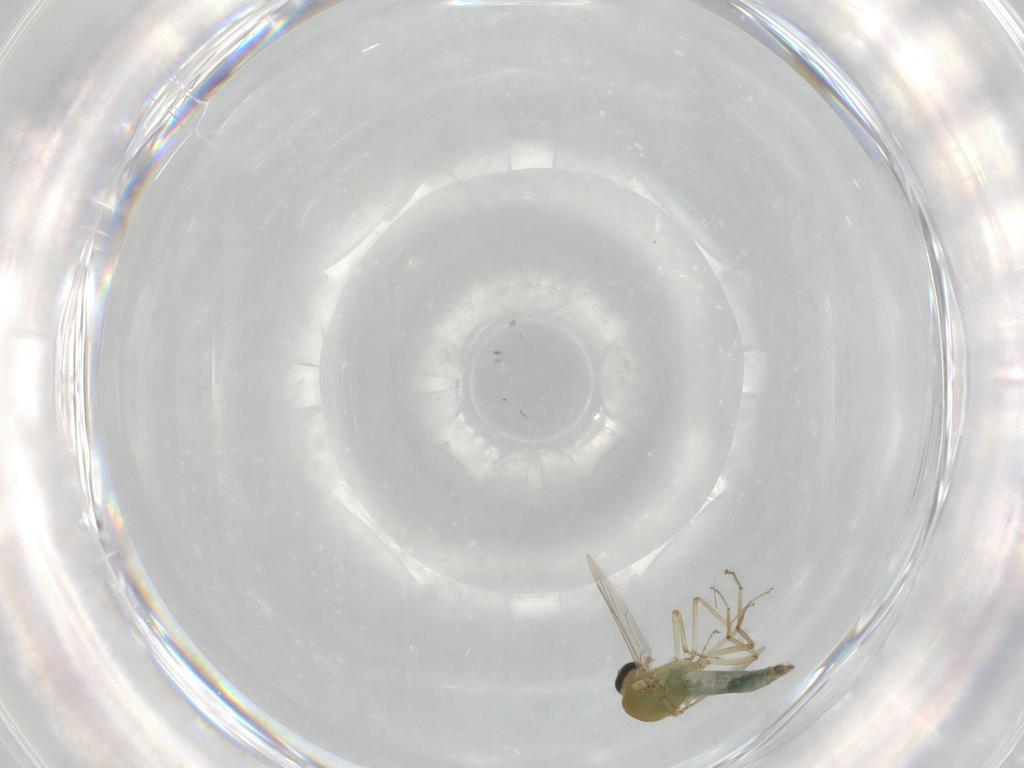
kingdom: Animalia
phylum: Arthropoda
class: Insecta
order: Diptera
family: Ceratopogonidae
